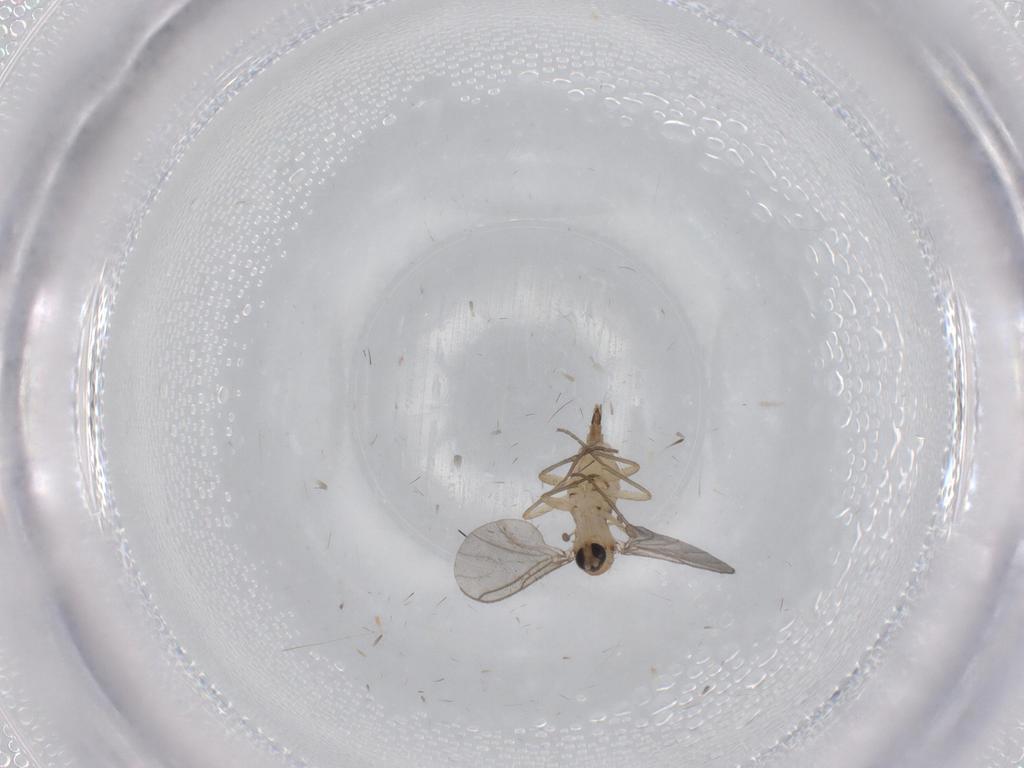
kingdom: Animalia
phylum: Arthropoda
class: Insecta
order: Diptera
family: Sciaridae
